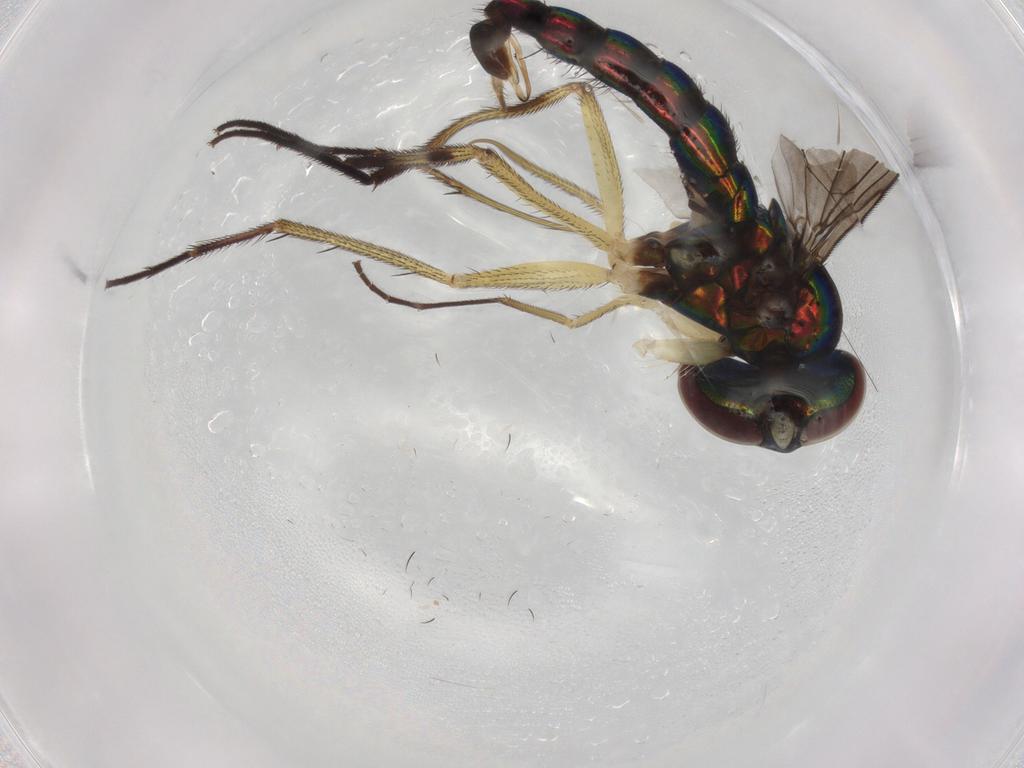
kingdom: Animalia
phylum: Arthropoda
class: Insecta
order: Diptera
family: Dolichopodidae
